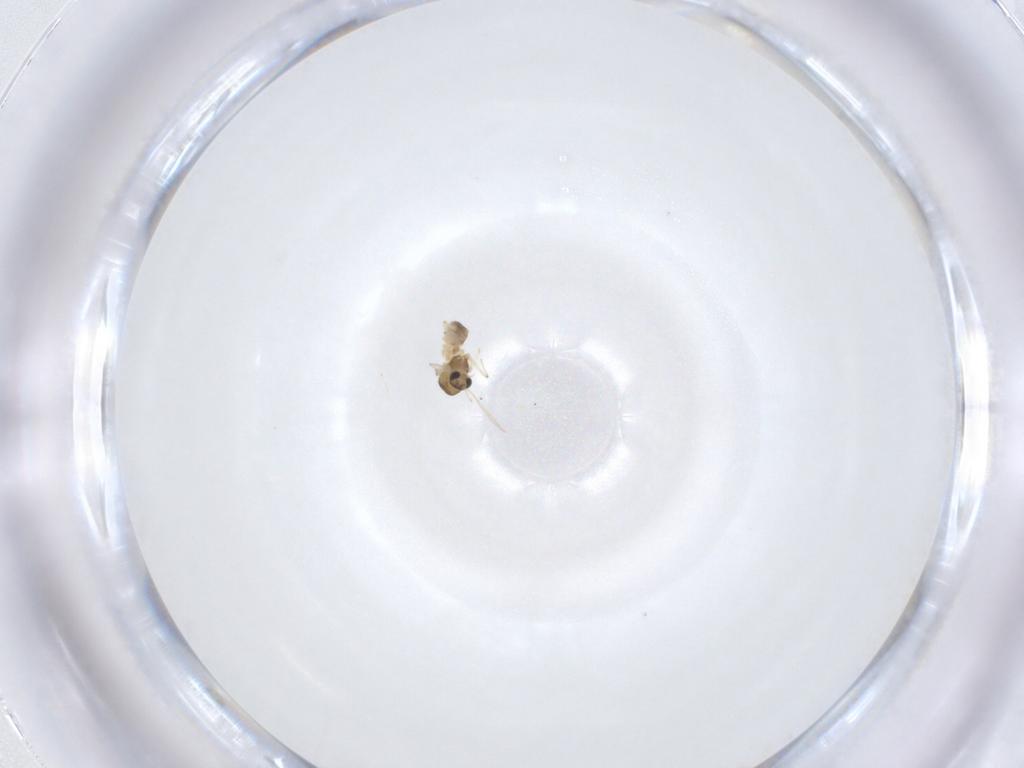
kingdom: Animalia
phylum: Arthropoda
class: Insecta
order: Diptera
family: Chironomidae
